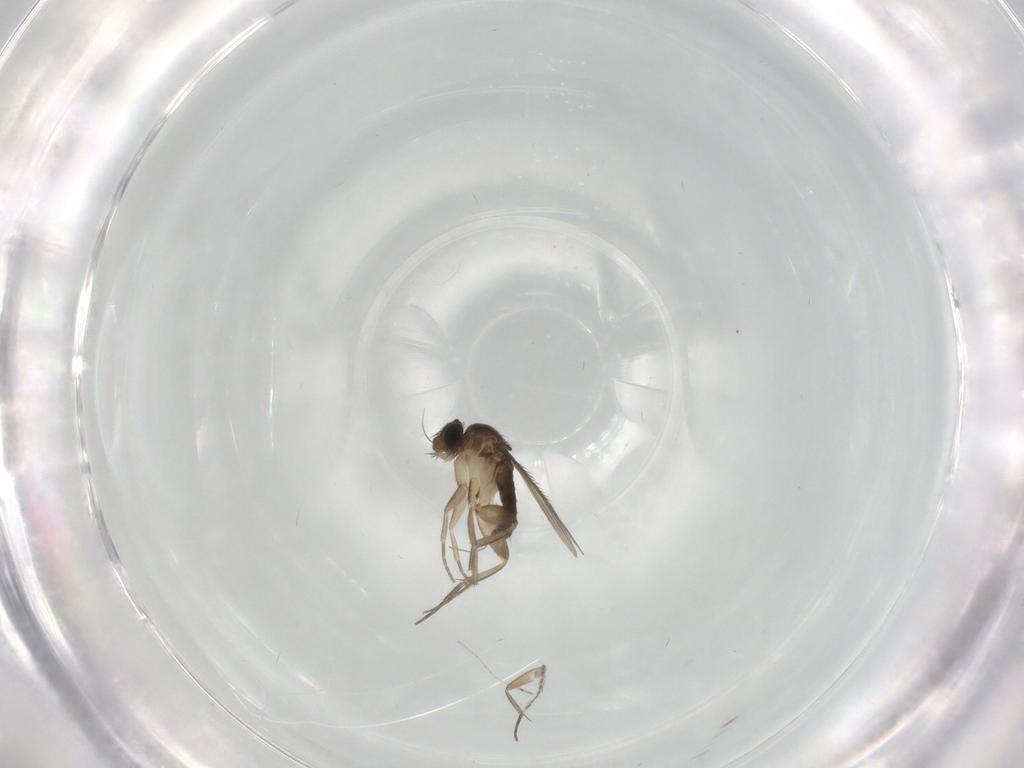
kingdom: Animalia
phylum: Arthropoda
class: Insecta
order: Diptera
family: Phoridae
